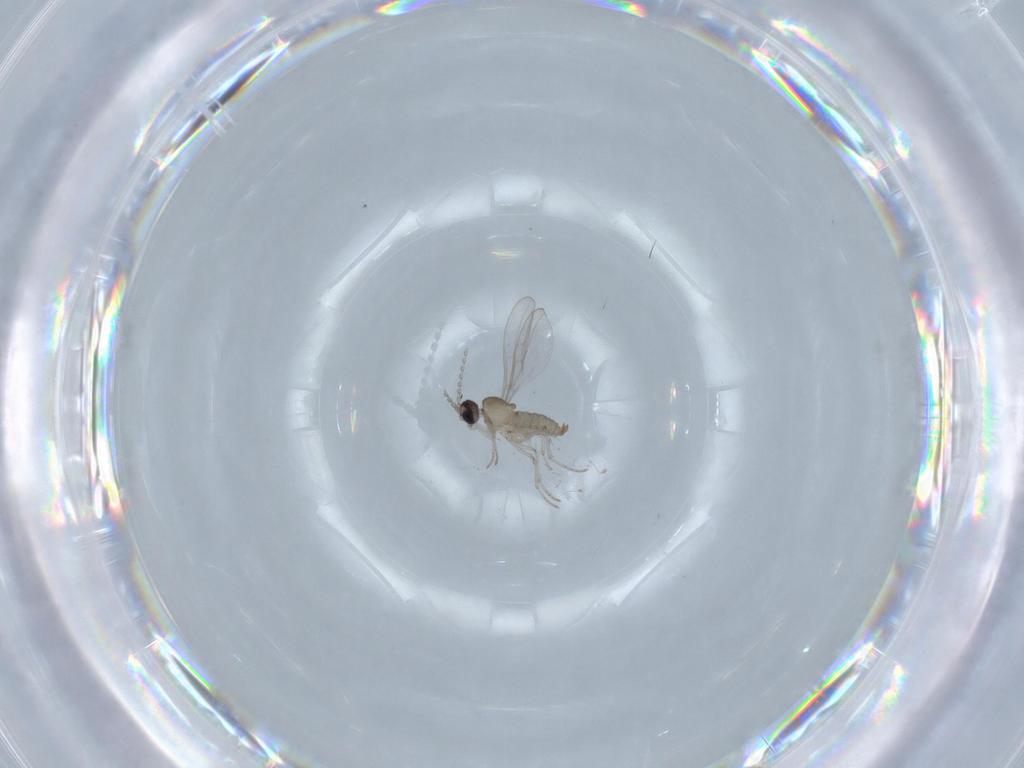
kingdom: Animalia
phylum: Arthropoda
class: Insecta
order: Diptera
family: Cecidomyiidae
